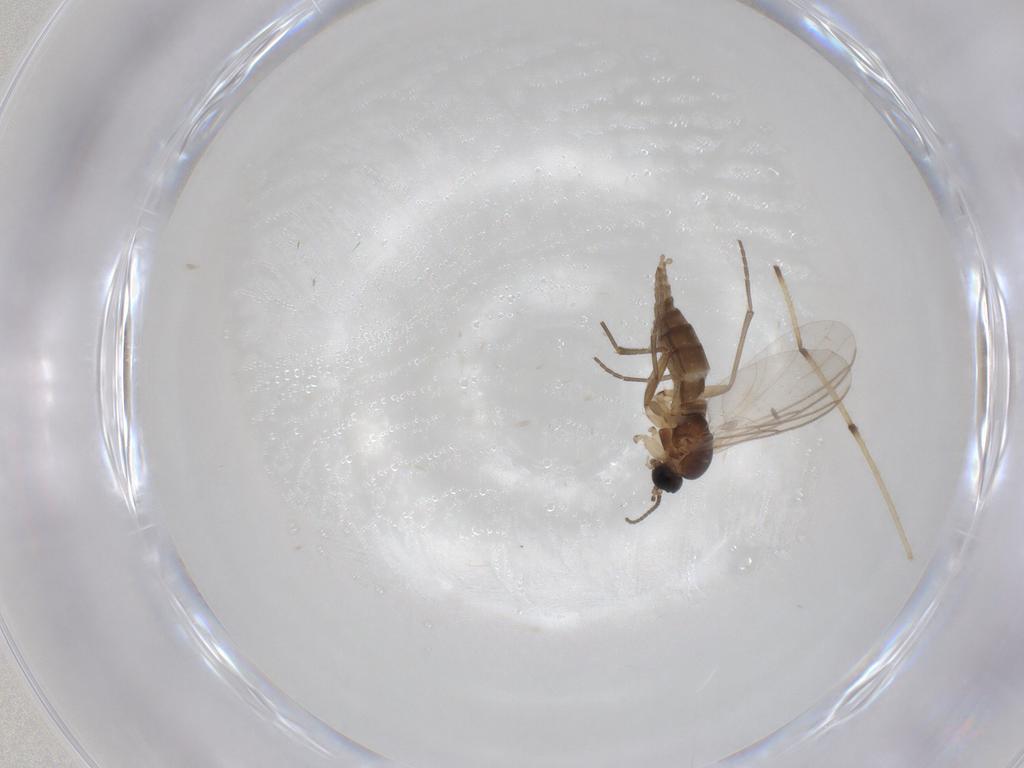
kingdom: Animalia
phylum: Arthropoda
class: Insecta
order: Diptera
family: Sciaridae
